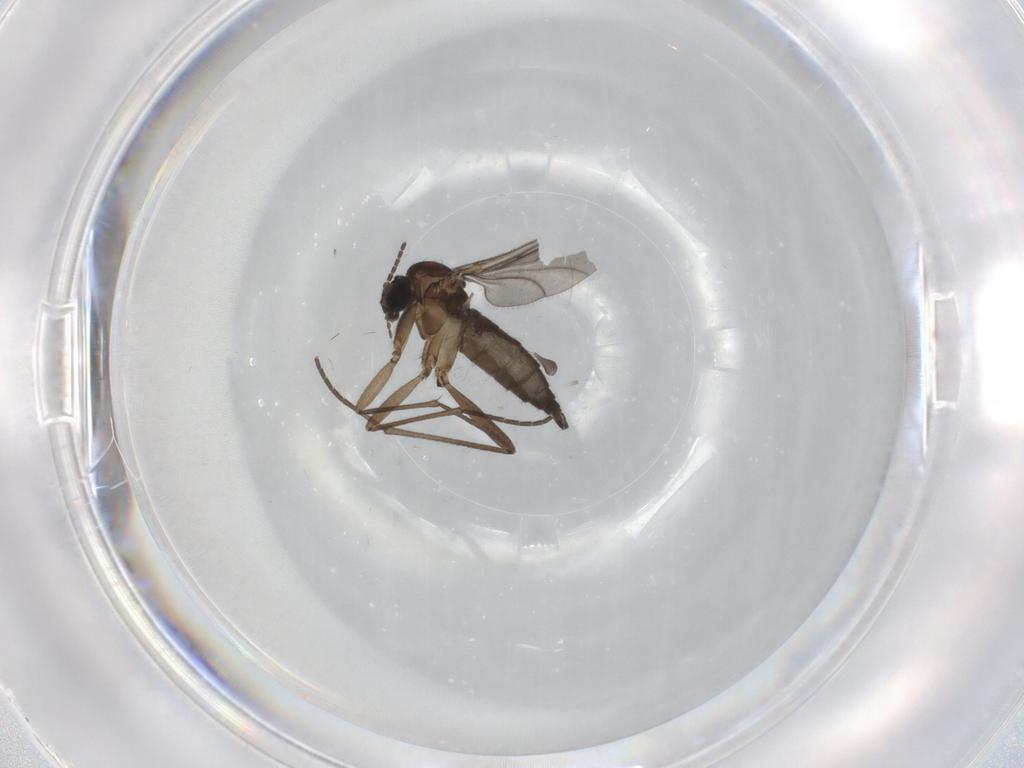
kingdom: Animalia
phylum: Arthropoda
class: Insecta
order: Diptera
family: Sciaridae
